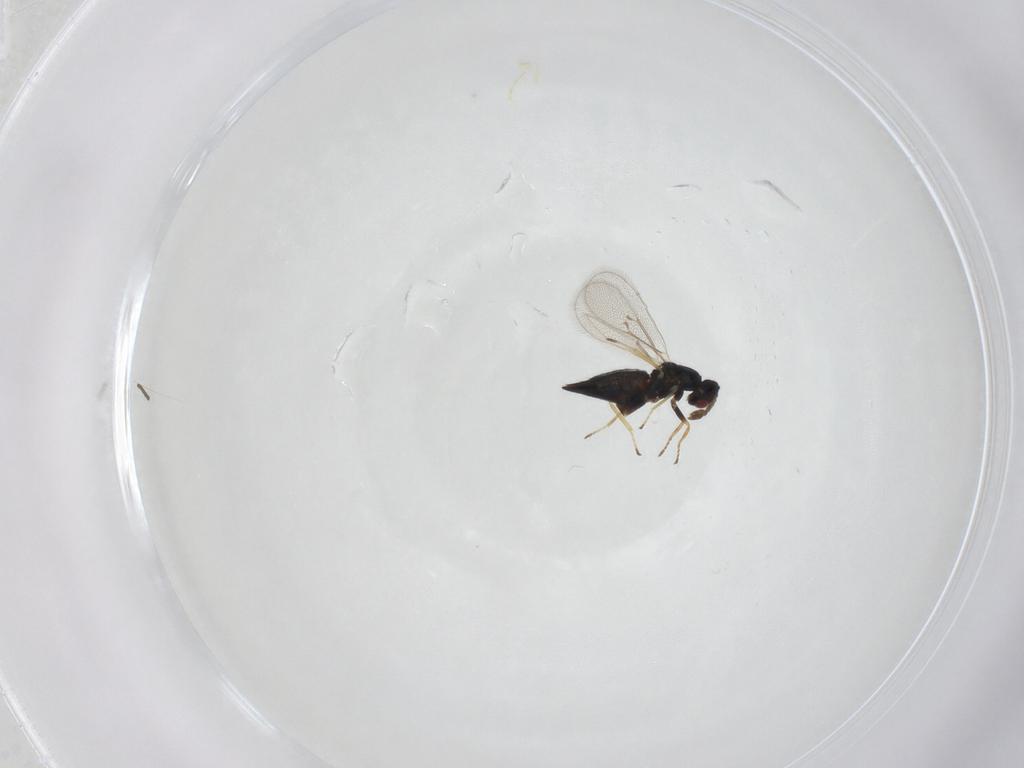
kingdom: Animalia
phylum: Arthropoda
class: Insecta
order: Hymenoptera
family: Eulophidae
